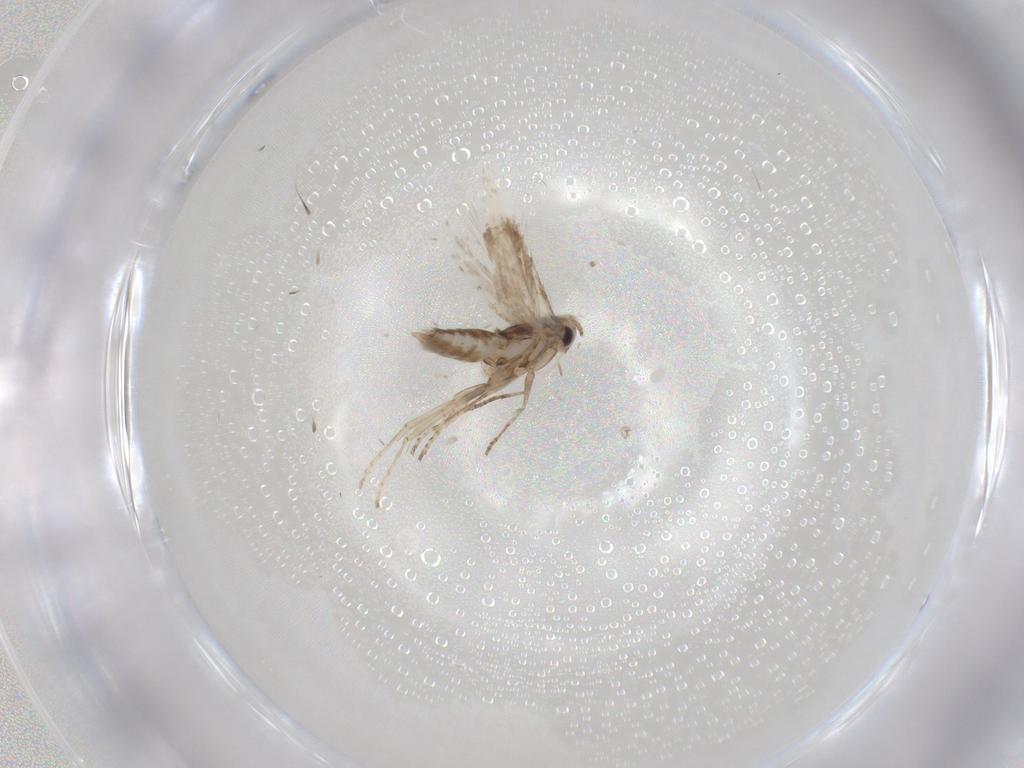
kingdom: Animalia
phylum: Arthropoda
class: Insecta
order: Lepidoptera
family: Depressariidae
